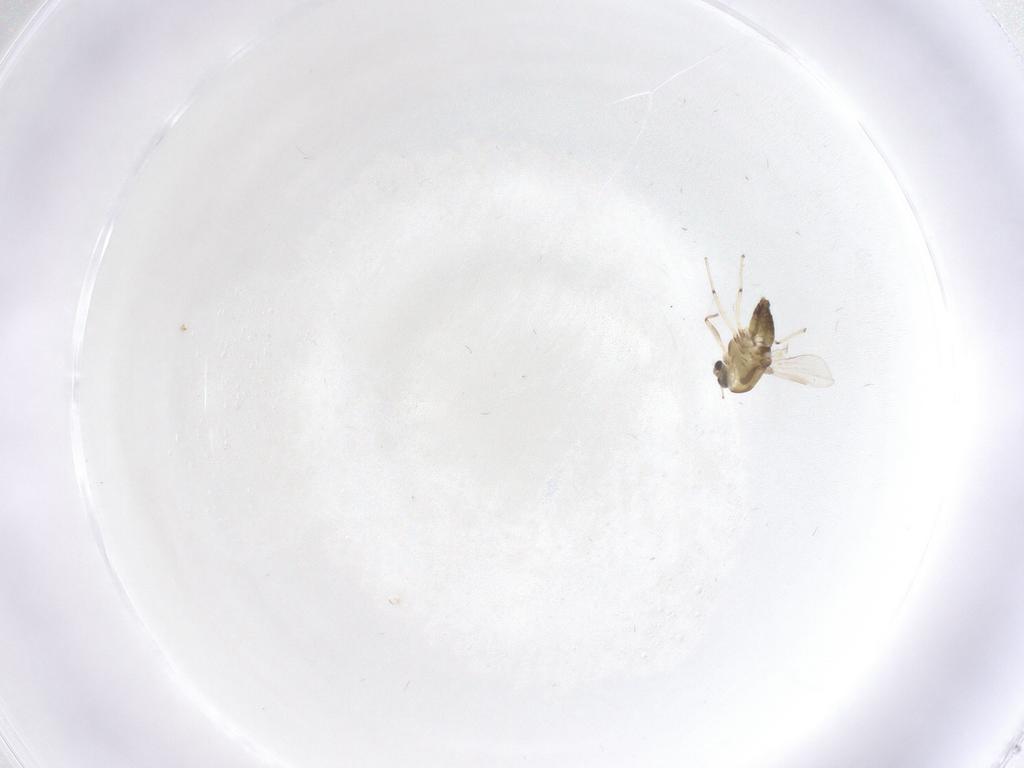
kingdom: Animalia
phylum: Arthropoda
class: Insecta
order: Diptera
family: Chironomidae
